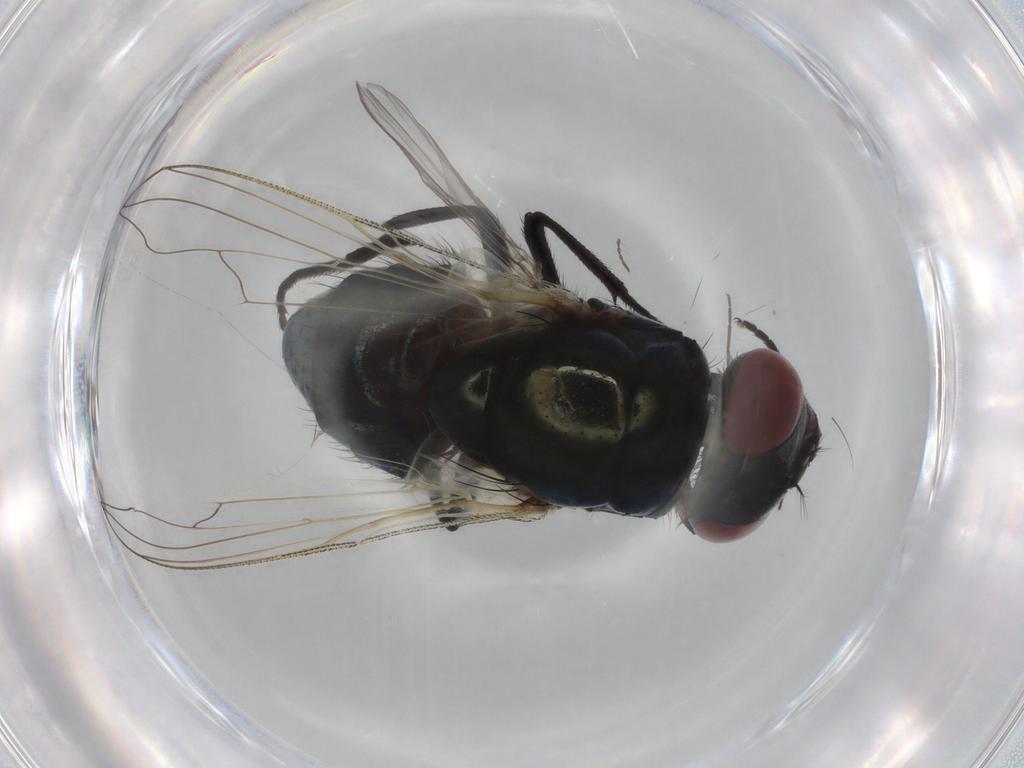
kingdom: Animalia
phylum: Arthropoda
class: Insecta
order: Diptera
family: Muscidae
